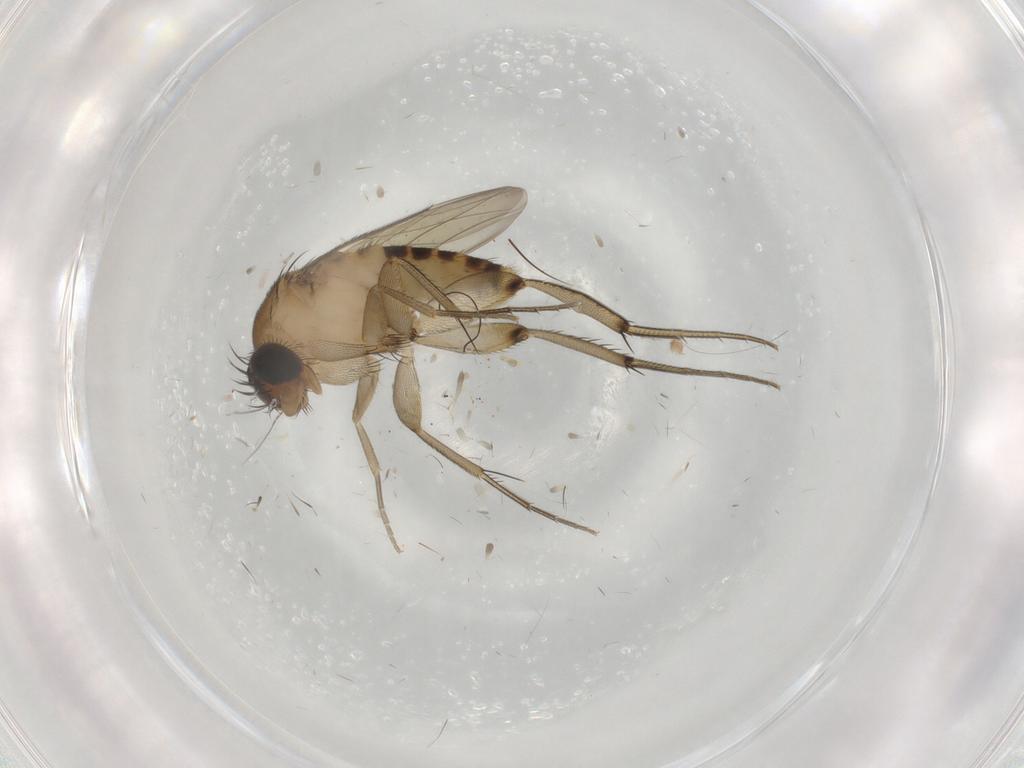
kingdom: Animalia
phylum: Arthropoda
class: Insecta
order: Diptera
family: Phoridae
